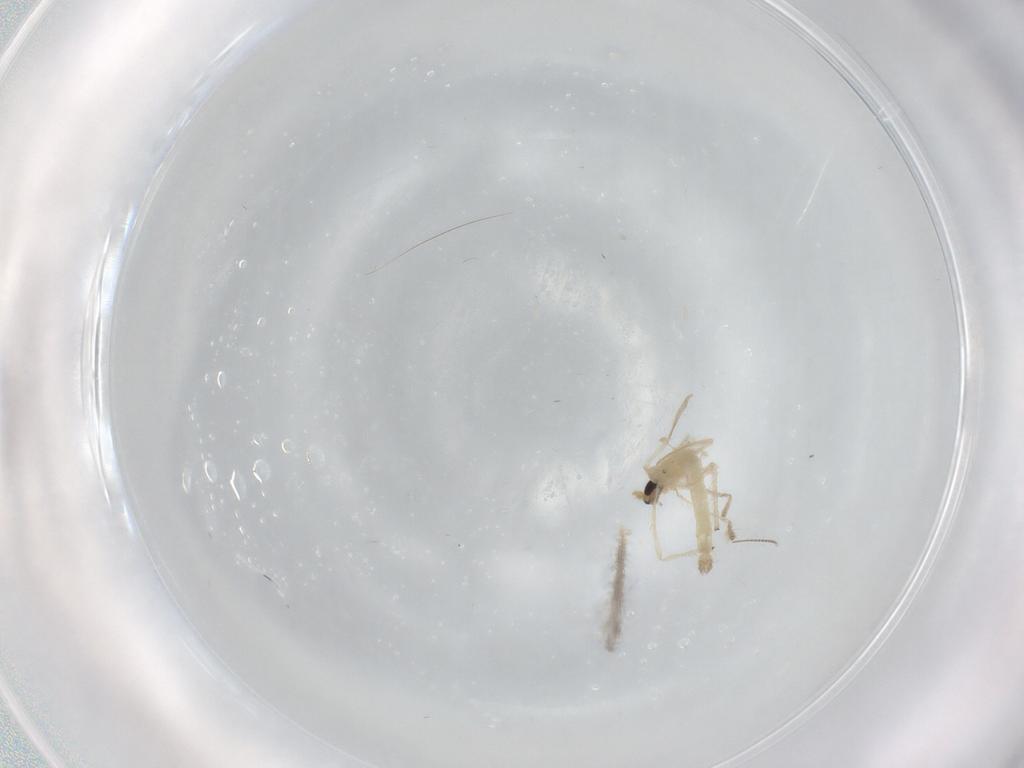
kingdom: Animalia
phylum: Arthropoda
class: Insecta
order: Diptera
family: Chironomidae
